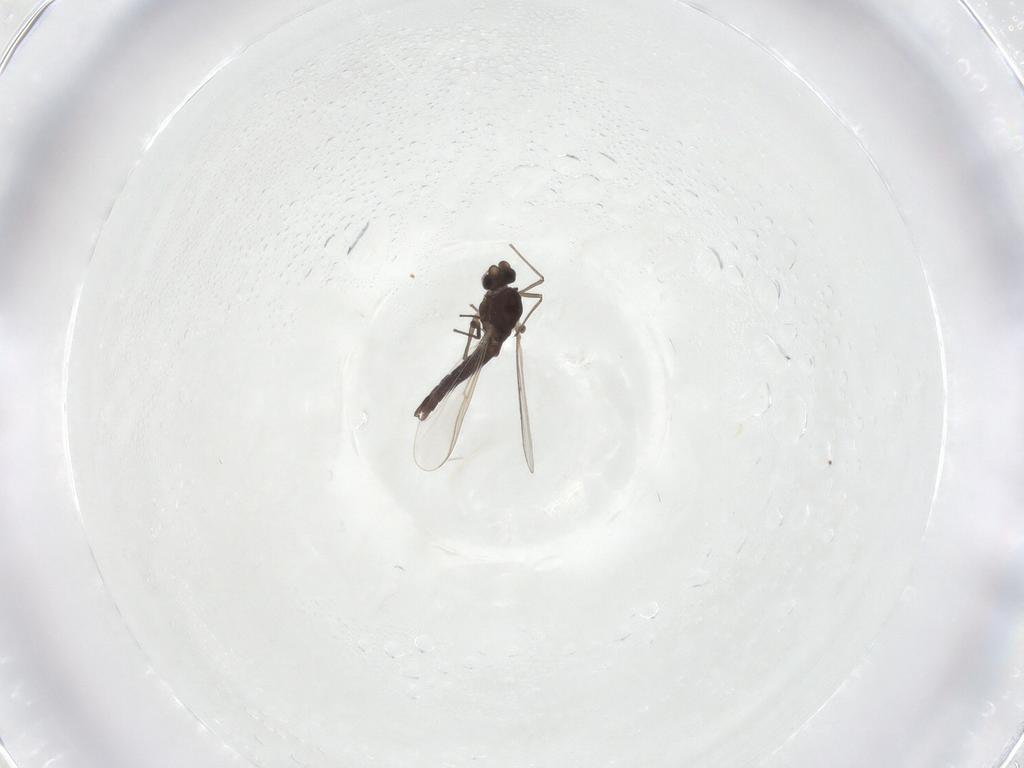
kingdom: Animalia
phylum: Arthropoda
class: Insecta
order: Diptera
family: Chironomidae
